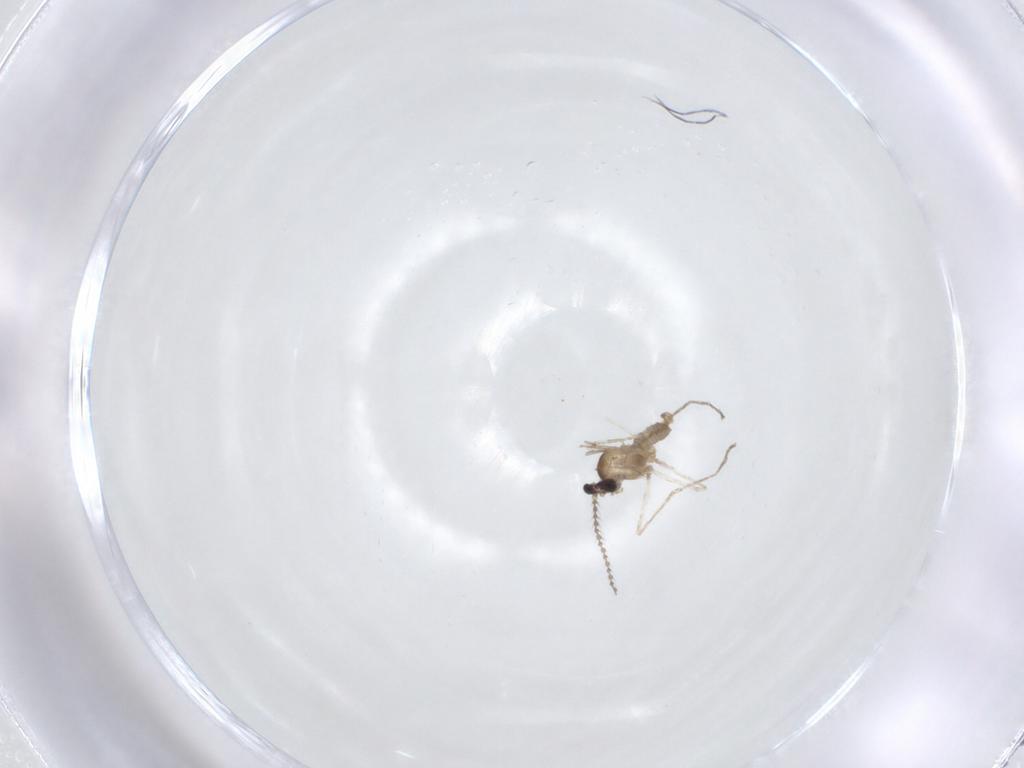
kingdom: Animalia
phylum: Arthropoda
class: Insecta
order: Diptera
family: Cecidomyiidae
